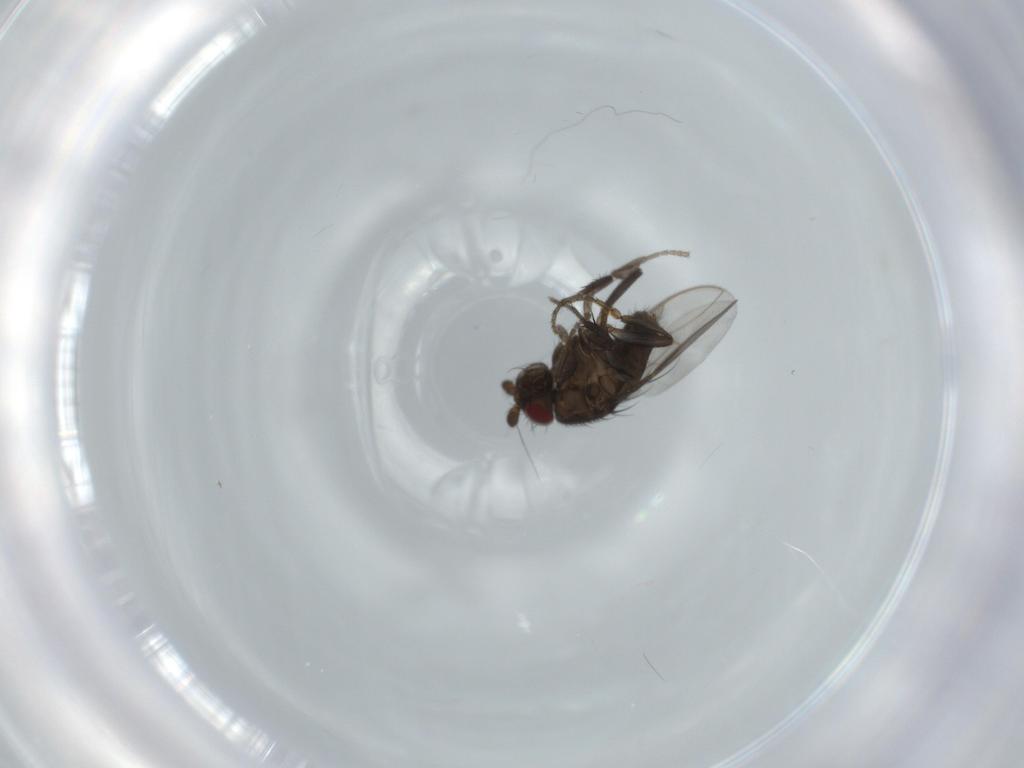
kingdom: Animalia
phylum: Arthropoda
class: Insecta
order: Diptera
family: Sphaeroceridae
